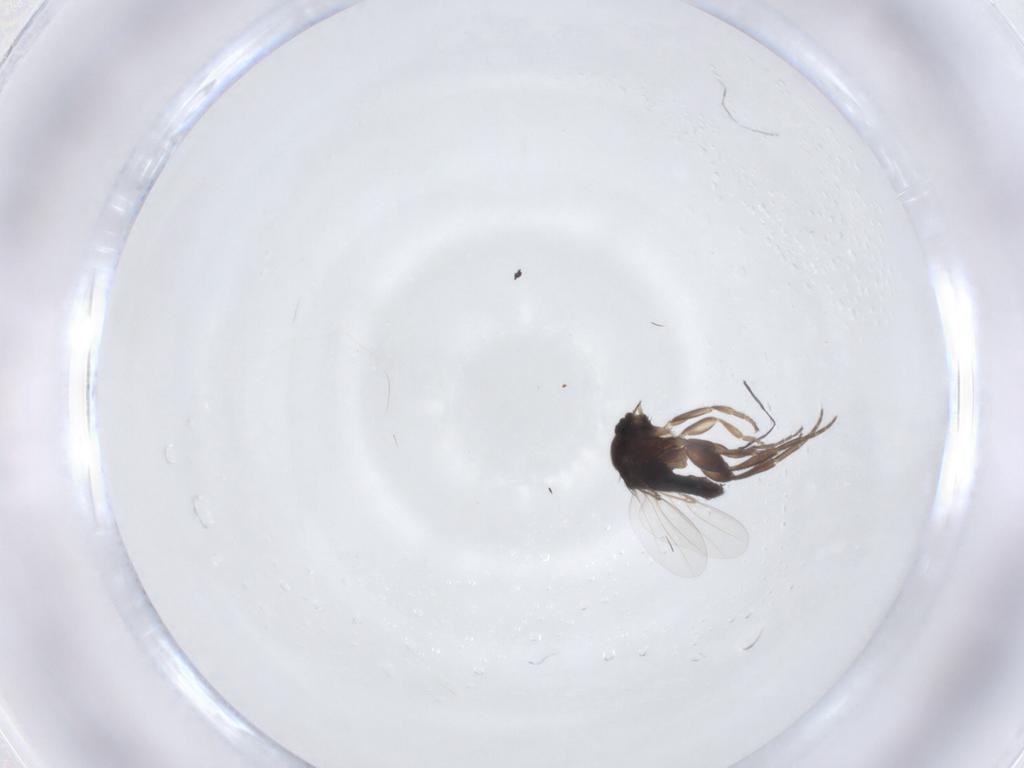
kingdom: Animalia
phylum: Arthropoda
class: Insecta
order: Diptera
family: Phoridae
